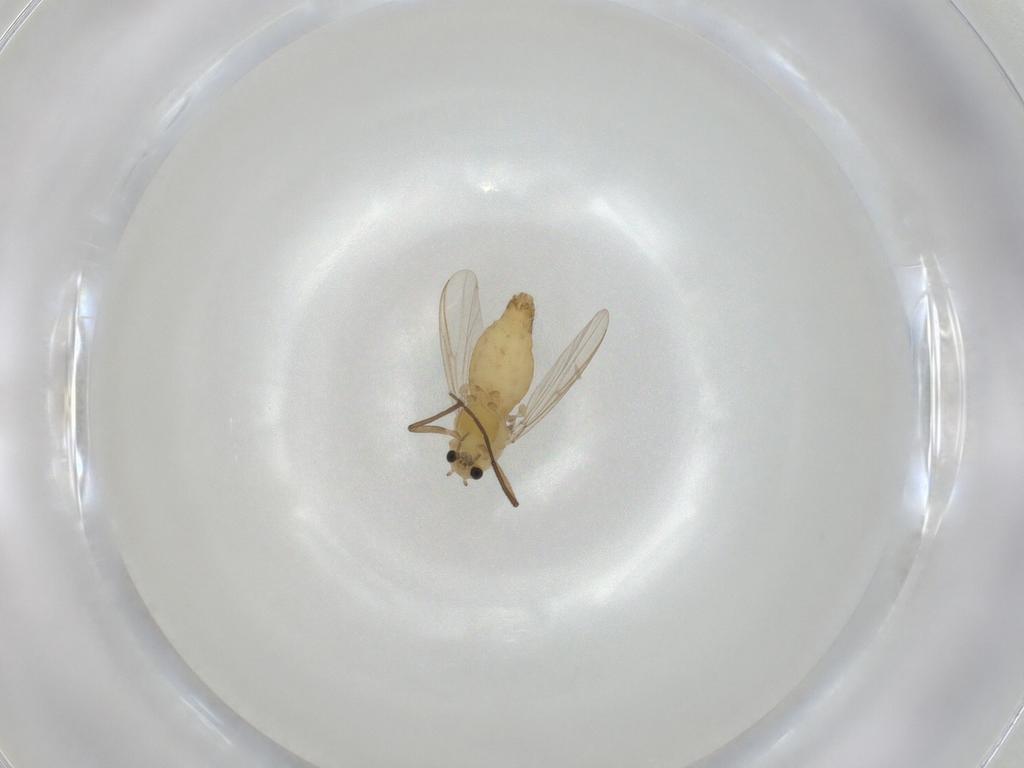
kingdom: Animalia
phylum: Arthropoda
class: Insecta
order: Diptera
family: Chironomidae
